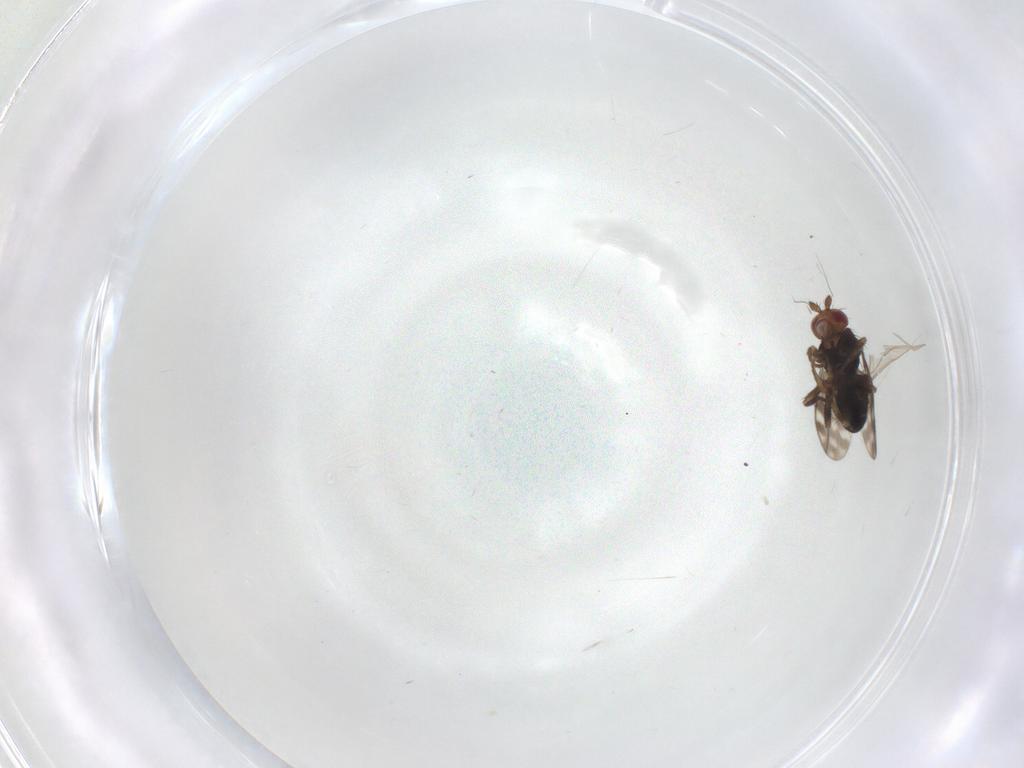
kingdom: Animalia
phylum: Arthropoda
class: Insecta
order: Diptera
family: Sphaeroceridae
